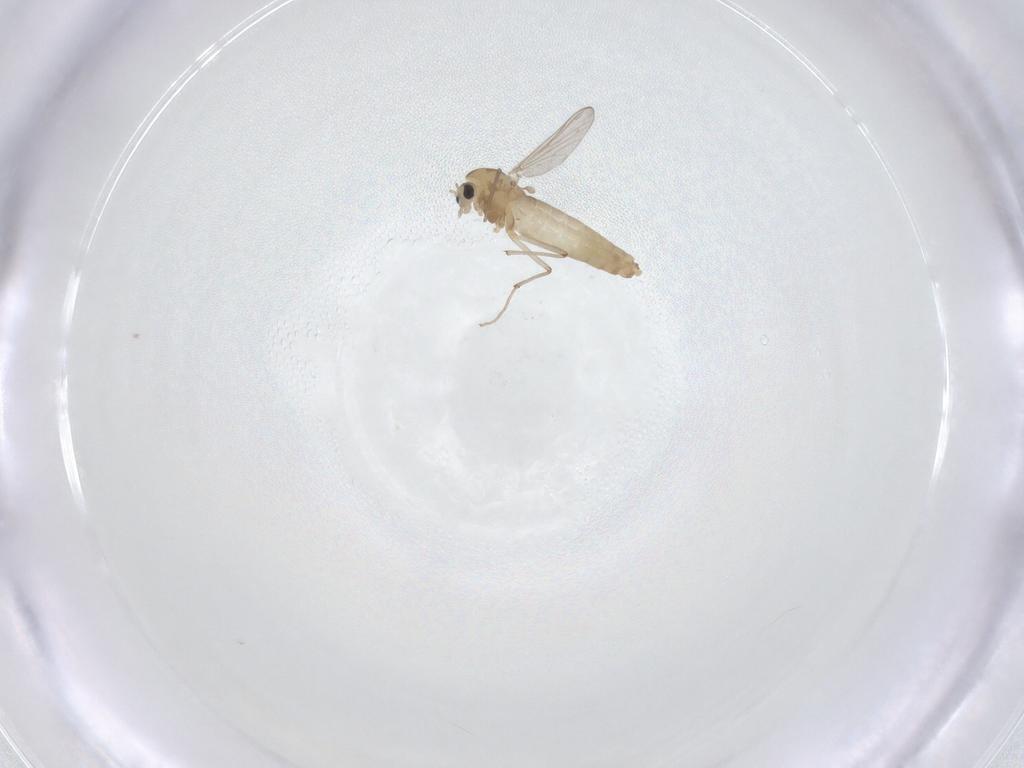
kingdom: Animalia
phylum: Arthropoda
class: Insecta
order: Diptera
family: Chironomidae
